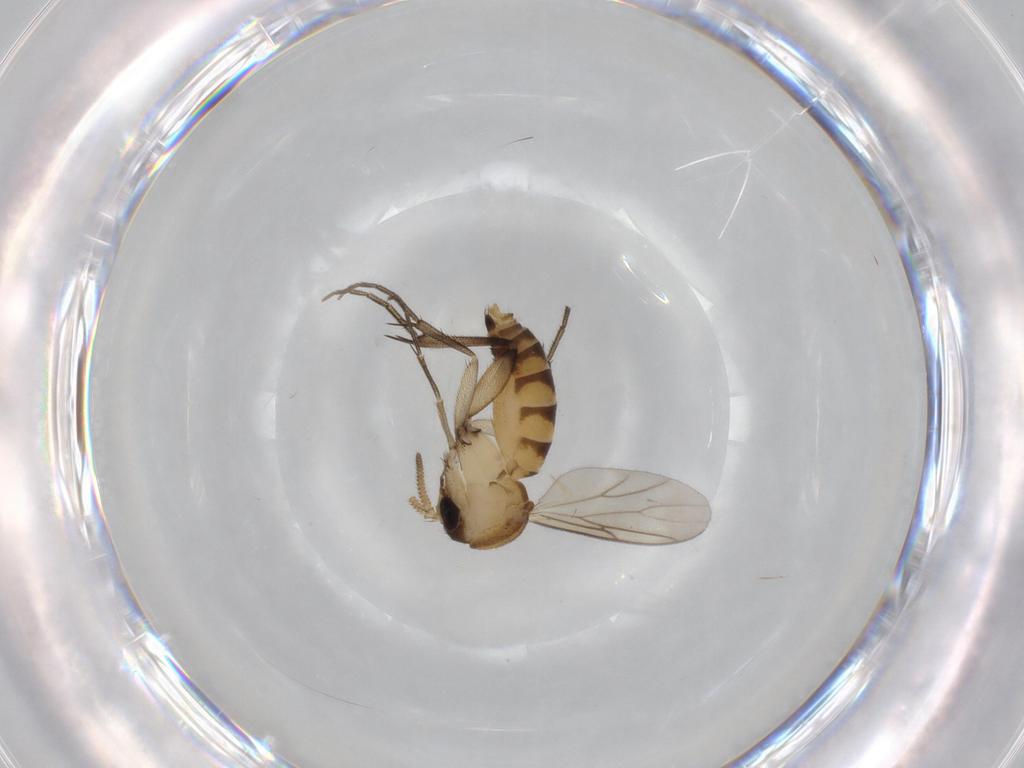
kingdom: Animalia
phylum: Arthropoda
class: Insecta
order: Diptera
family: Mycetophilidae
